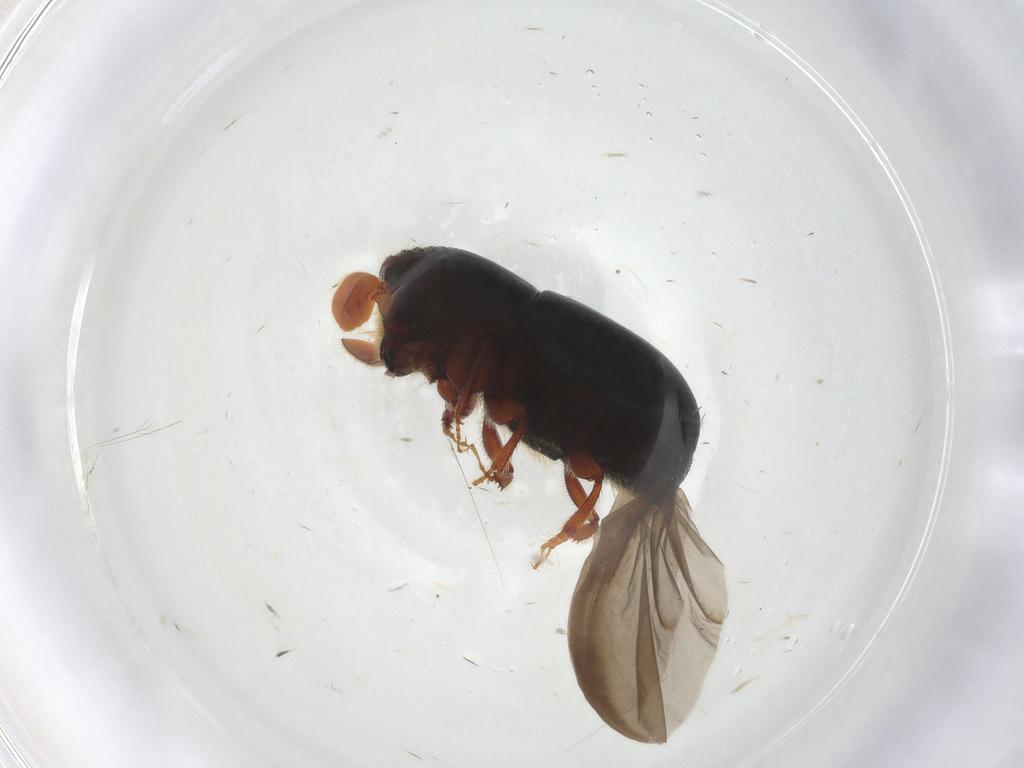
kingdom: Animalia
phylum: Arthropoda
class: Insecta
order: Coleoptera
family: Curculionidae
